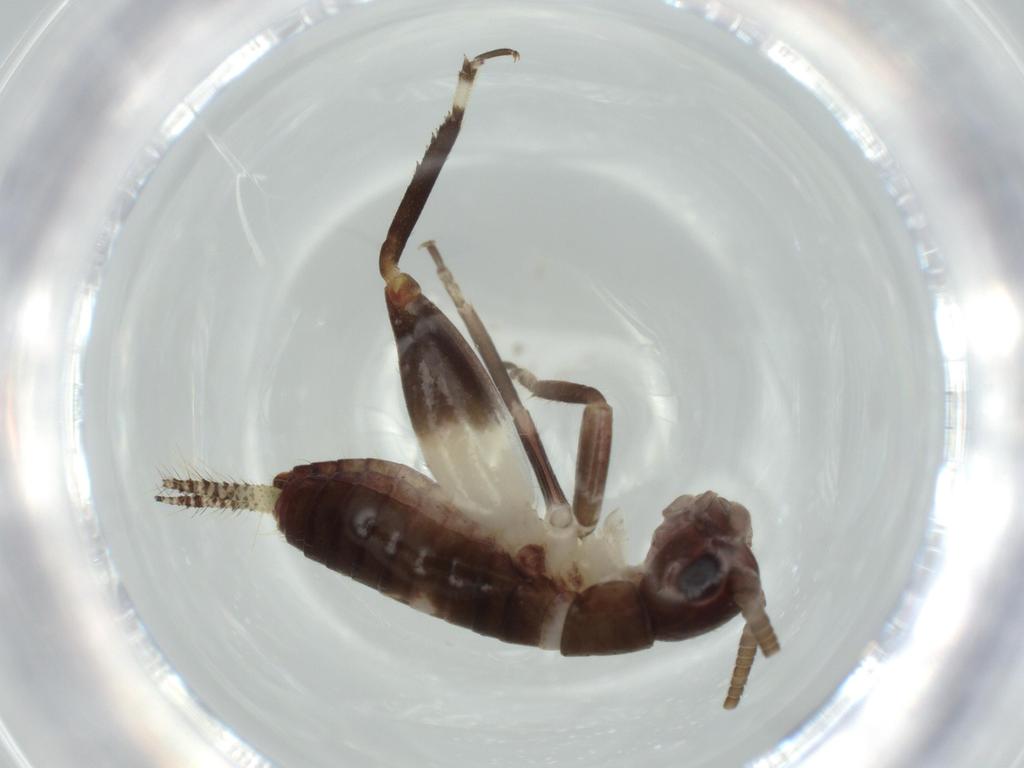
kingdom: Animalia
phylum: Arthropoda
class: Insecta
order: Orthoptera
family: Gryllidae
